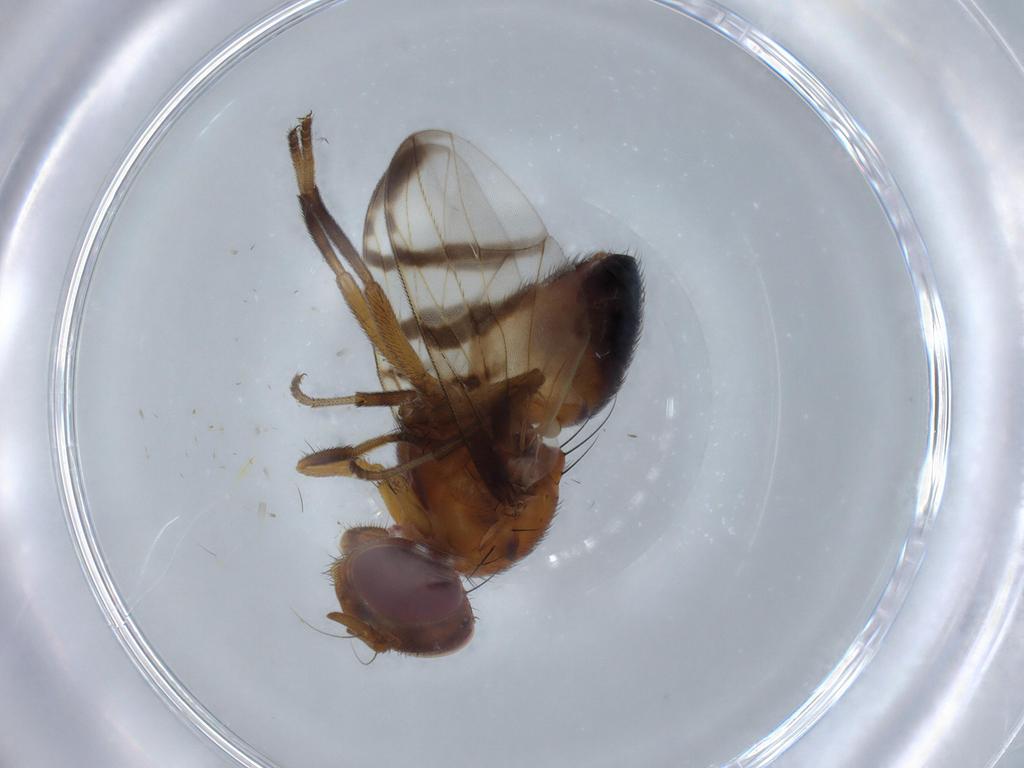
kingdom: Animalia
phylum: Arthropoda
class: Insecta
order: Diptera
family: Platystomatidae
